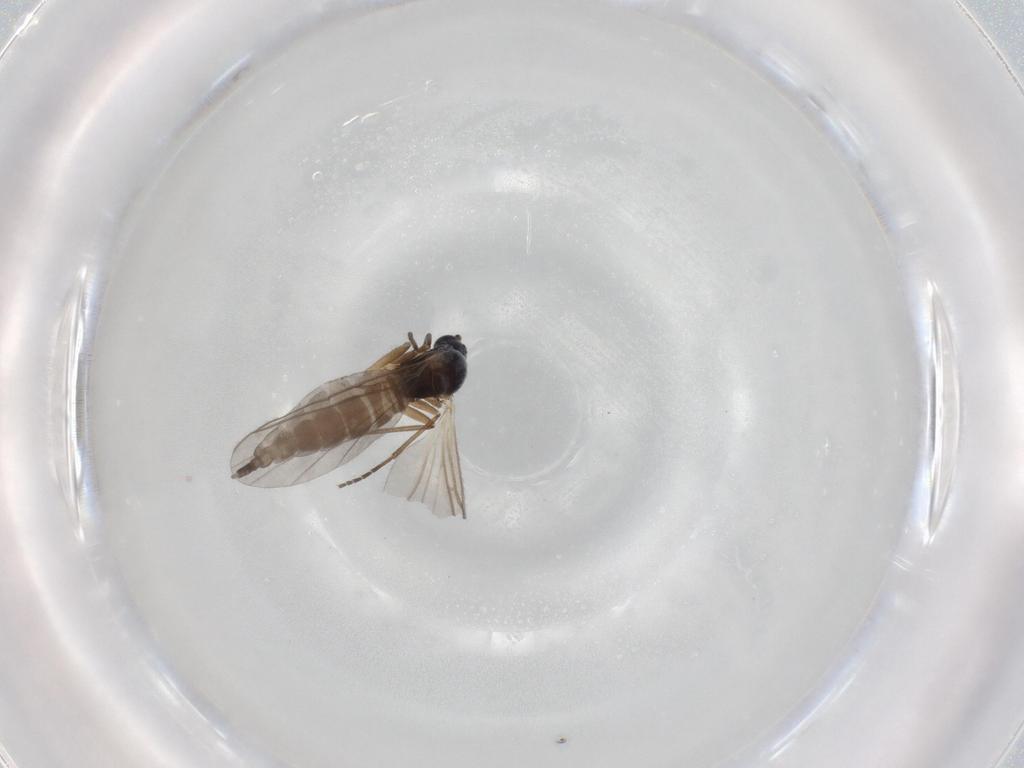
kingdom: Animalia
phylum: Arthropoda
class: Insecta
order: Diptera
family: Sciaridae
